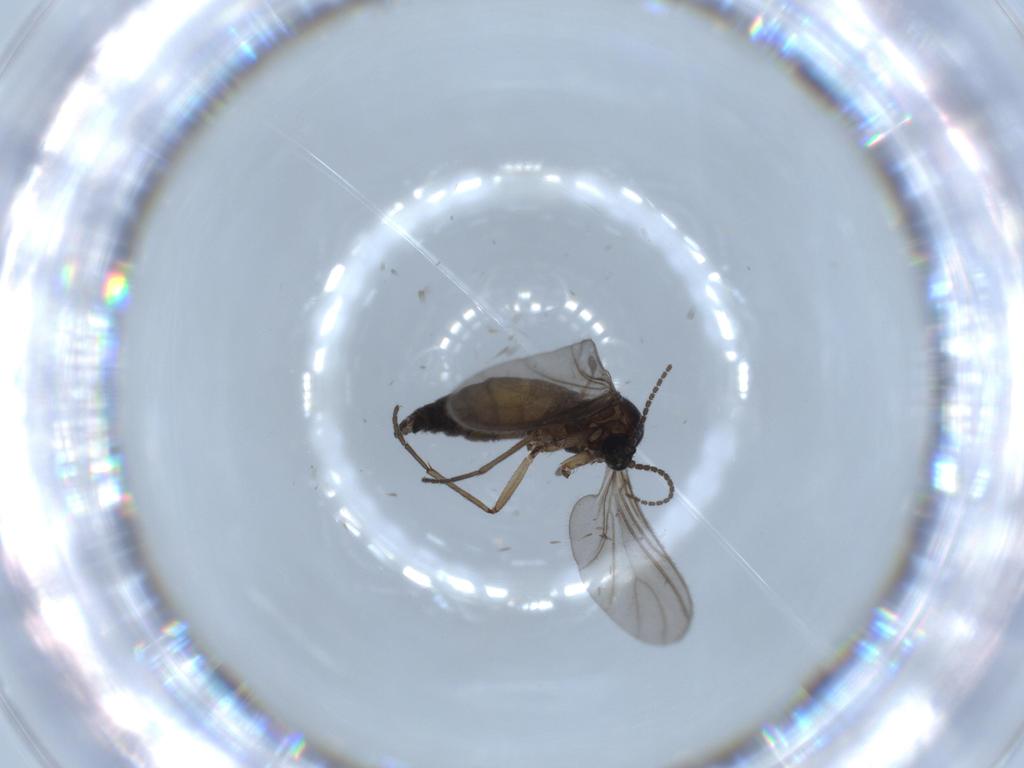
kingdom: Animalia
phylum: Arthropoda
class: Insecta
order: Diptera
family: Sciaridae
